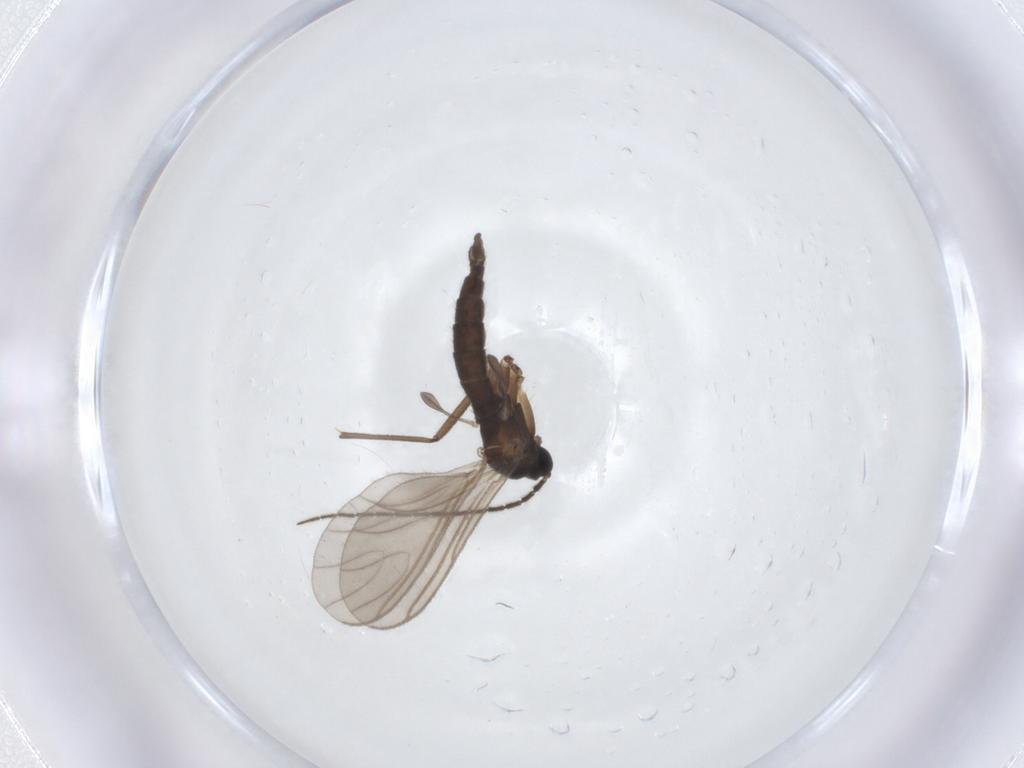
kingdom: Animalia
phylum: Arthropoda
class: Insecta
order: Diptera
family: Sciaridae
